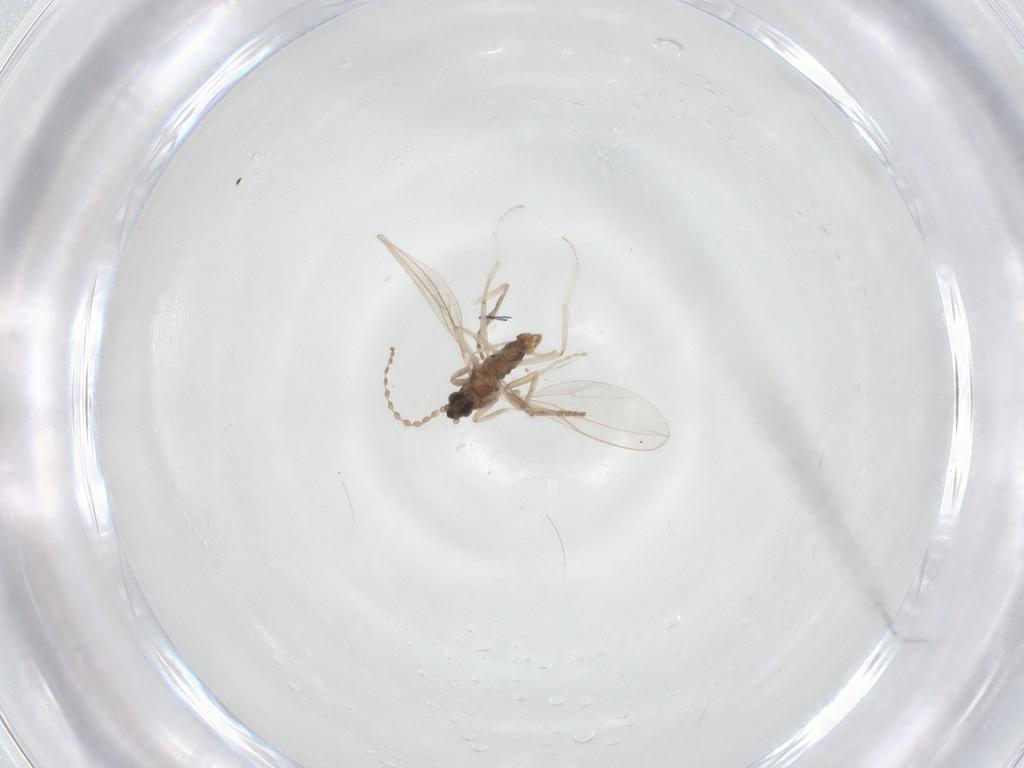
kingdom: Animalia
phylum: Arthropoda
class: Insecta
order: Diptera
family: Cecidomyiidae
